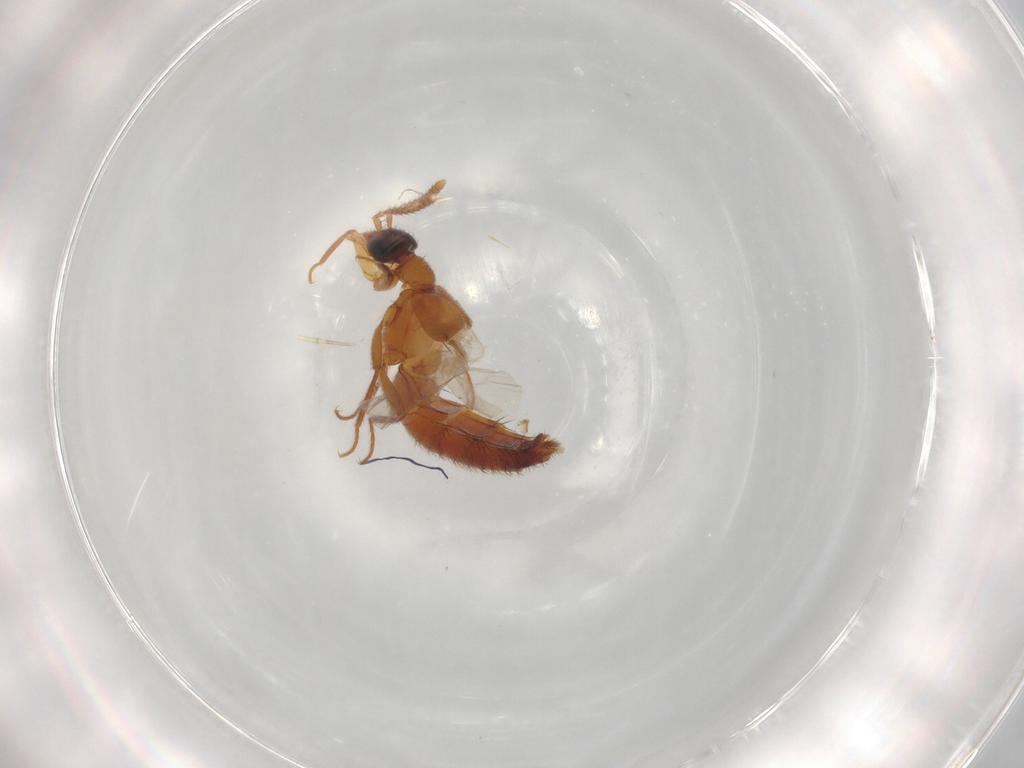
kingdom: Animalia
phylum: Arthropoda
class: Insecta
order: Coleoptera
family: Staphylinidae
